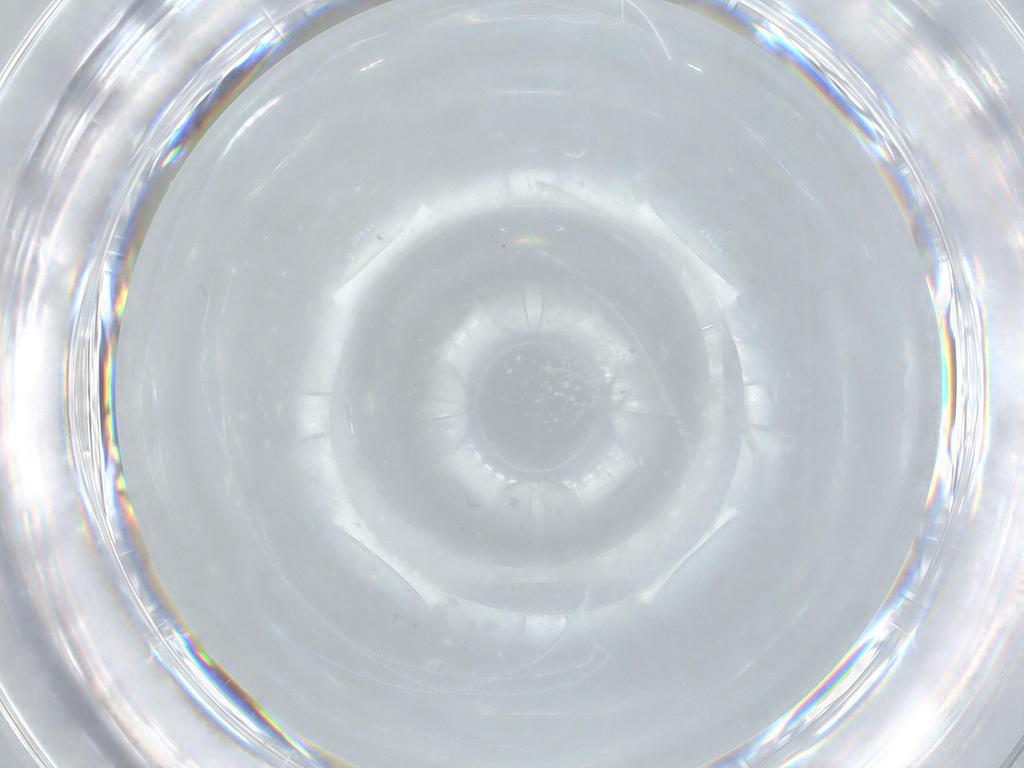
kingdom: Animalia
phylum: Arthropoda
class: Insecta
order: Diptera
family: Dolichopodidae
